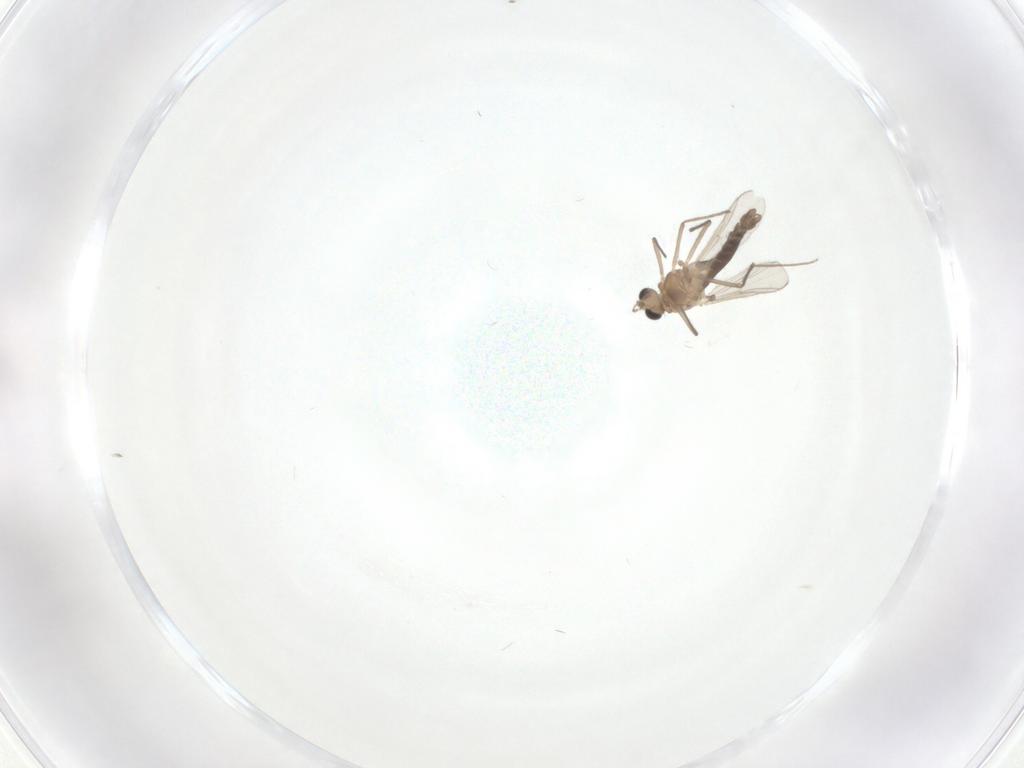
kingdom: Animalia
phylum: Arthropoda
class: Insecta
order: Diptera
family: Chironomidae
